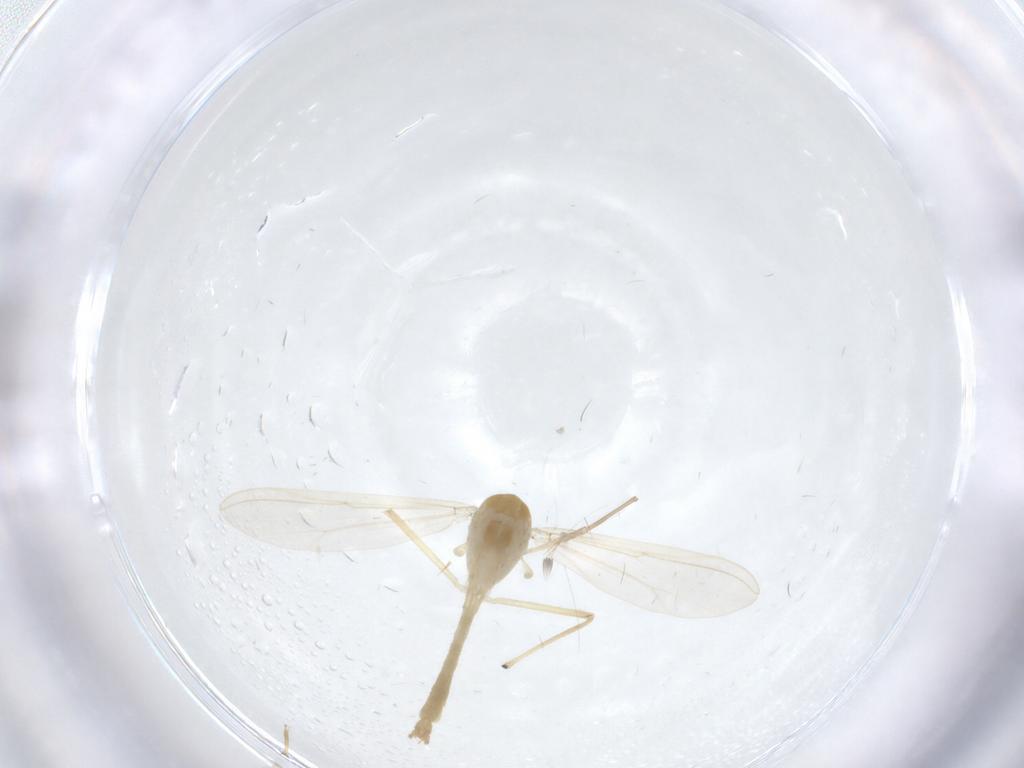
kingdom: Animalia
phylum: Arthropoda
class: Insecta
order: Diptera
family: Chironomidae
